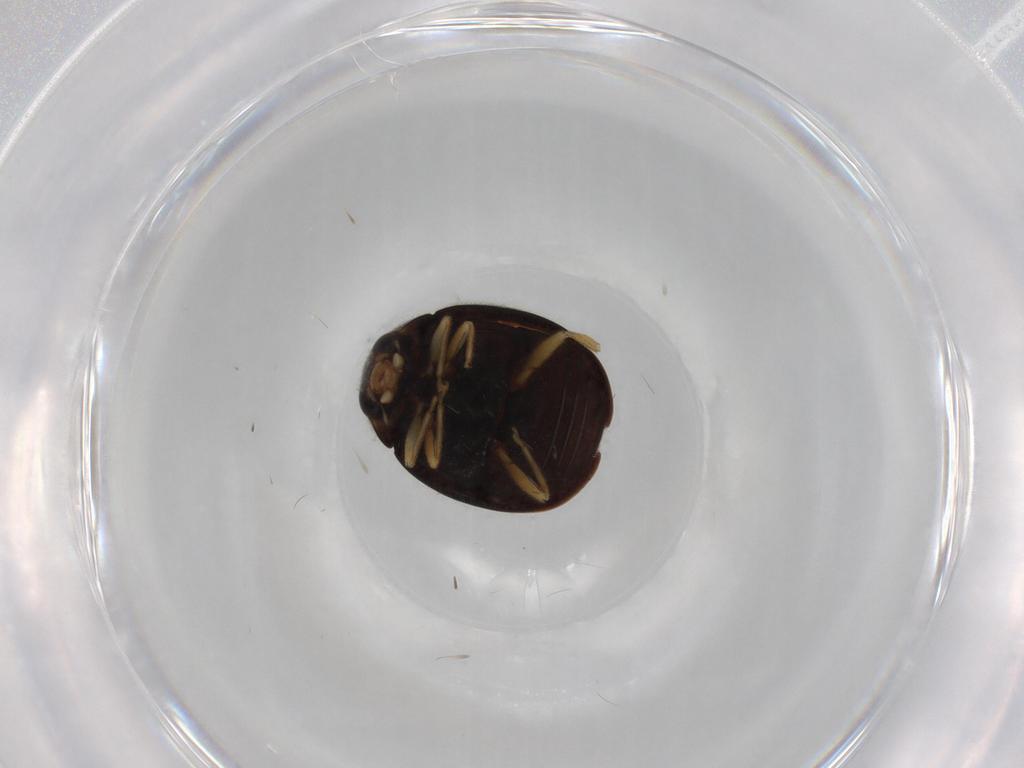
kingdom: Animalia
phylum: Arthropoda
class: Insecta
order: Coleoptera
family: Coccinellidae
